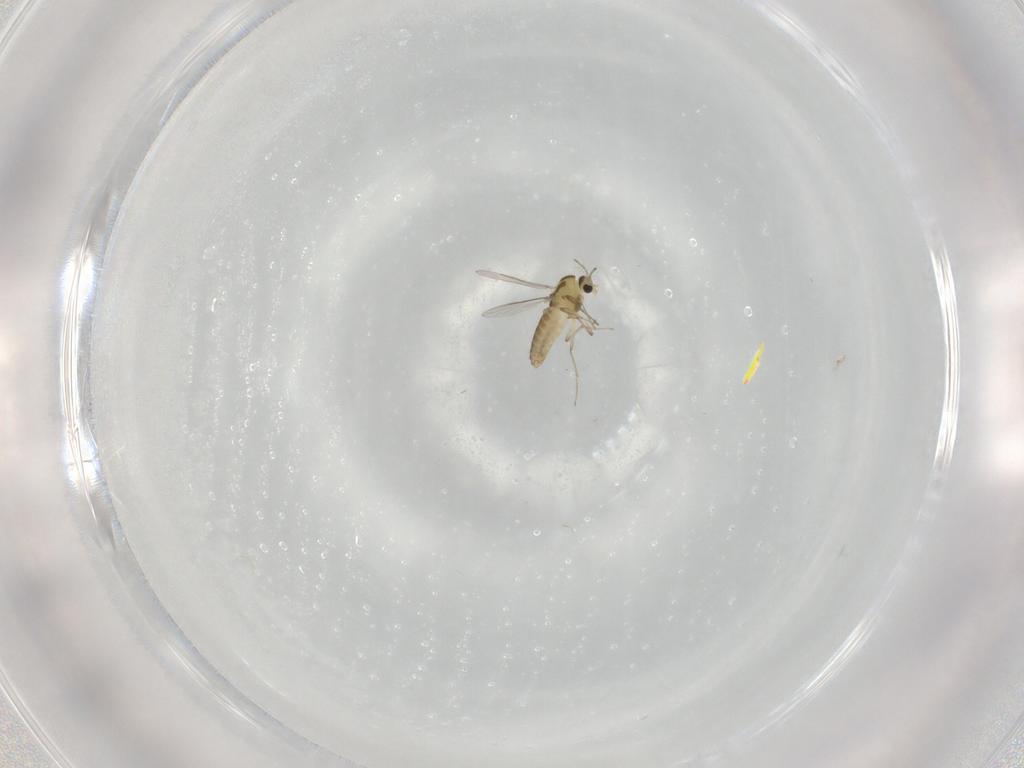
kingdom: Animalia
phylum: Arthropoda
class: Insecta
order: Diptera
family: Chironomidae
